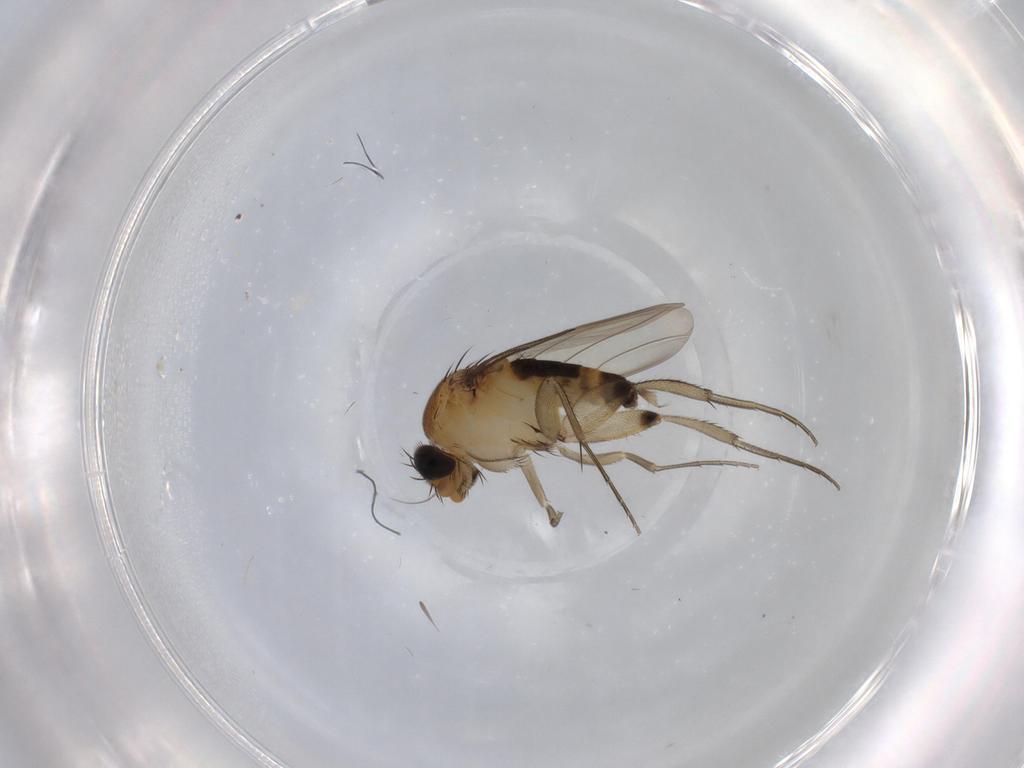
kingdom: Animalia
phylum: Arthropoda
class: Insecta
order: Diptera
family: Phoridae
